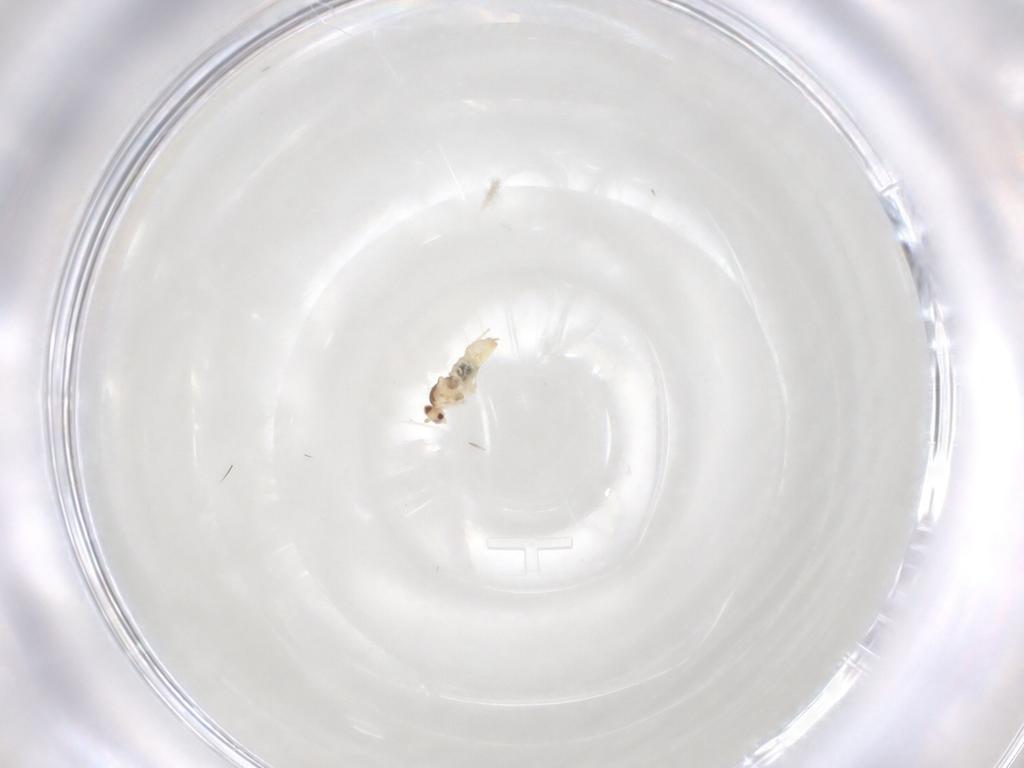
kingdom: Animalia
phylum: Arthropoda
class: Insecta
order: Diptera
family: Cecidomyiidae
